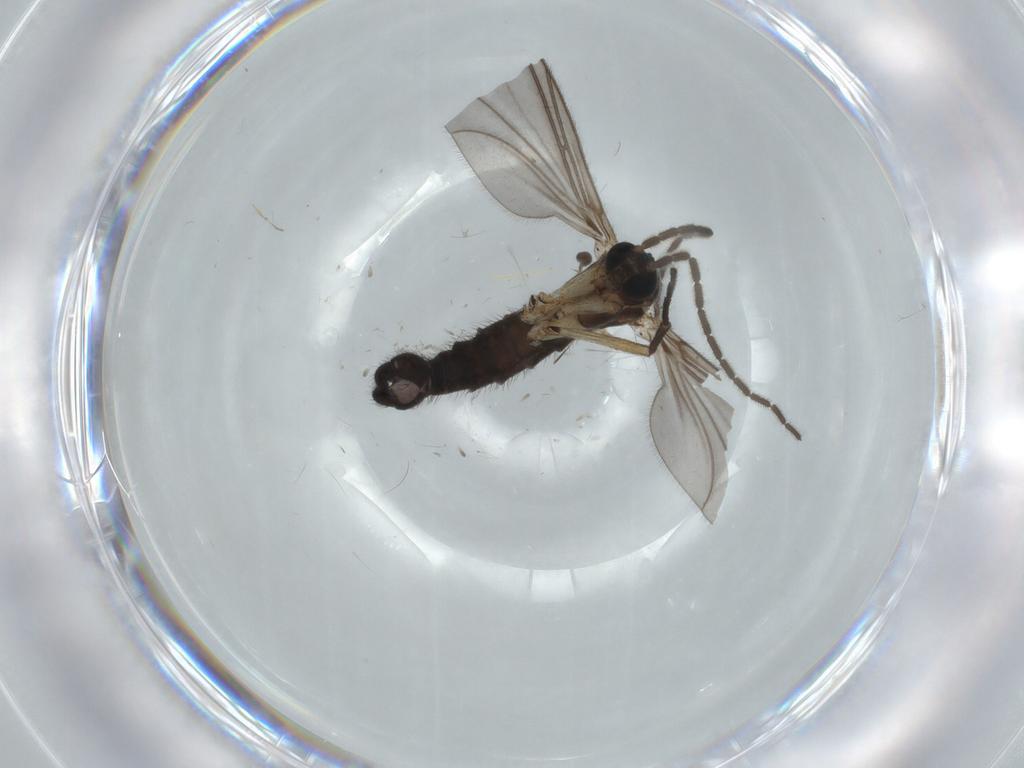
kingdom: Animalia
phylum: Arthropoda
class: Insecta
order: Diptera
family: Sciaridae
